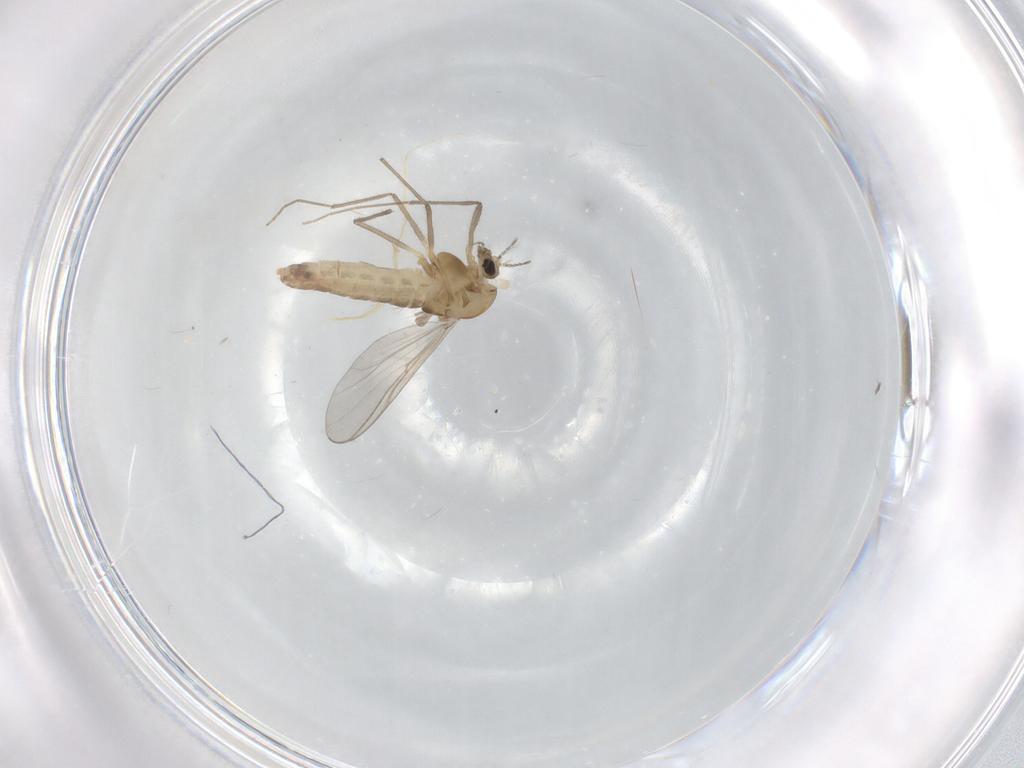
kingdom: Animalia
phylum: Arthropoda
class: Insecta
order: Diptera
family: Chironomidae
